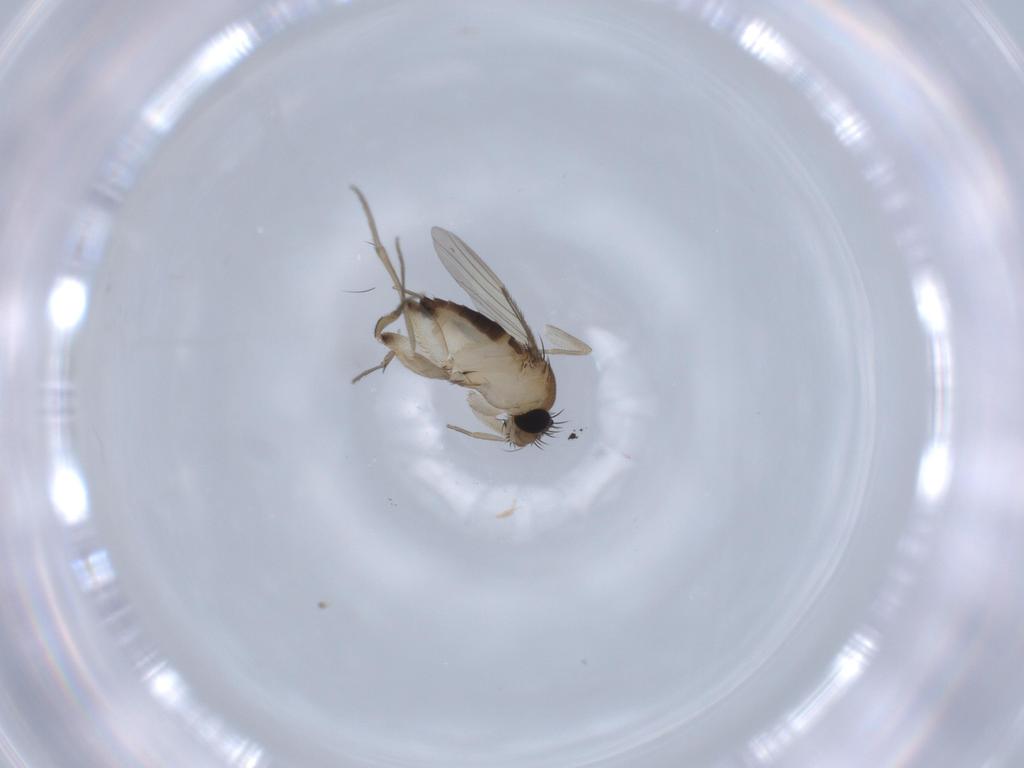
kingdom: Animalia
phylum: Arthropoda
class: Insecta
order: Diptera
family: Phoridae
